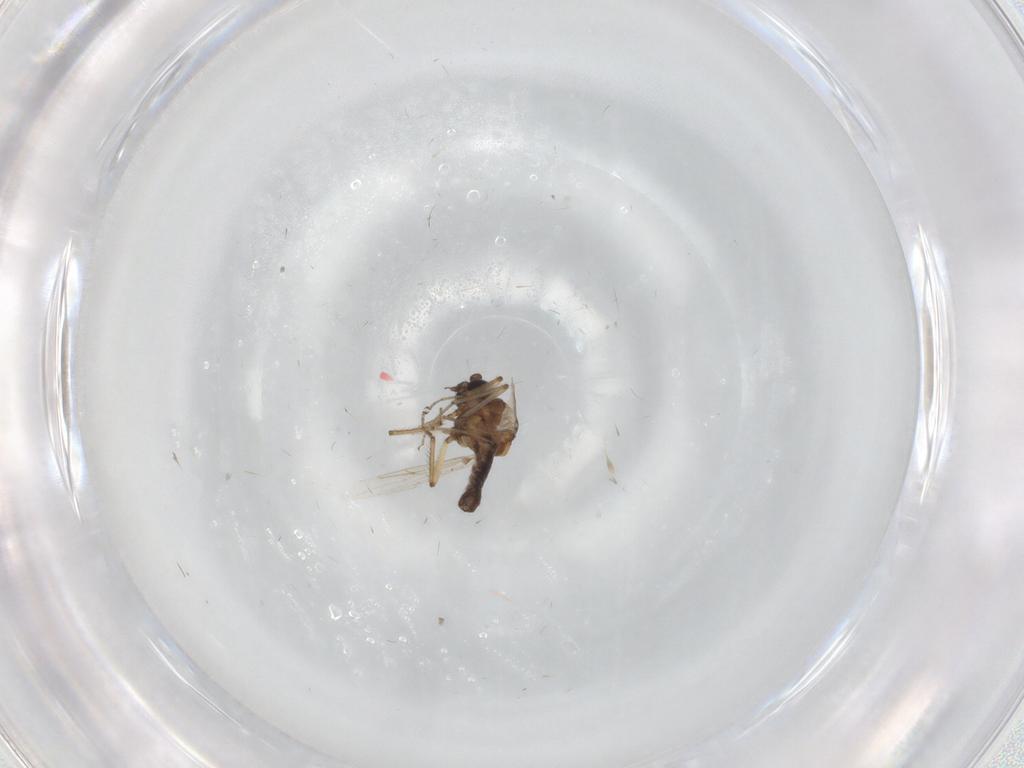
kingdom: Animalia
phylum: Arthropoda
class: Insecta
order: Diptera
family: Ceratopogonidae
